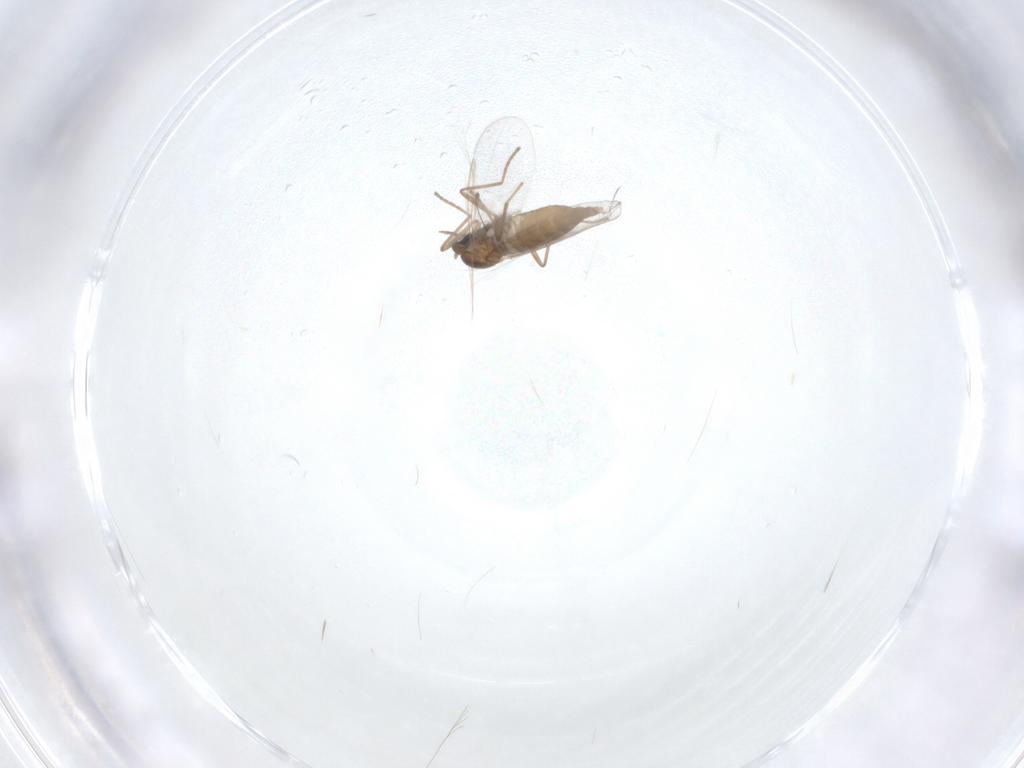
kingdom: Animalia
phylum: Arthropoda
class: Insecta
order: Diptera
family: Cecidomyiidae
